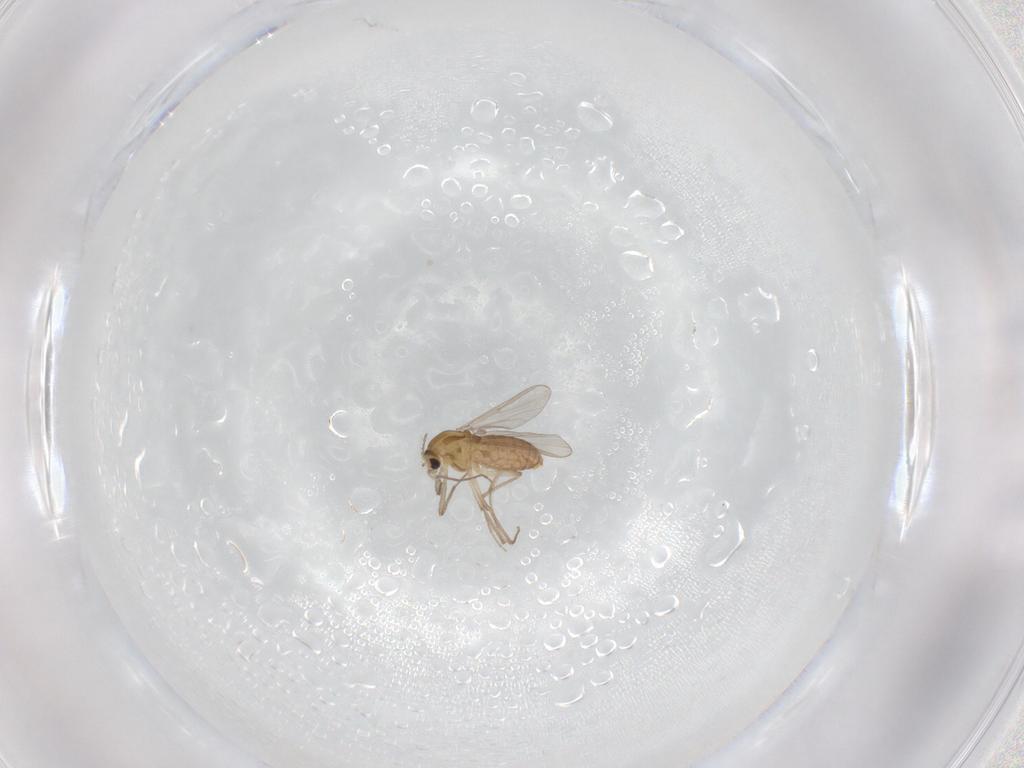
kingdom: Animalia
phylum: Arthropoda
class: Insecta
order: Diptera
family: Chironomidae
